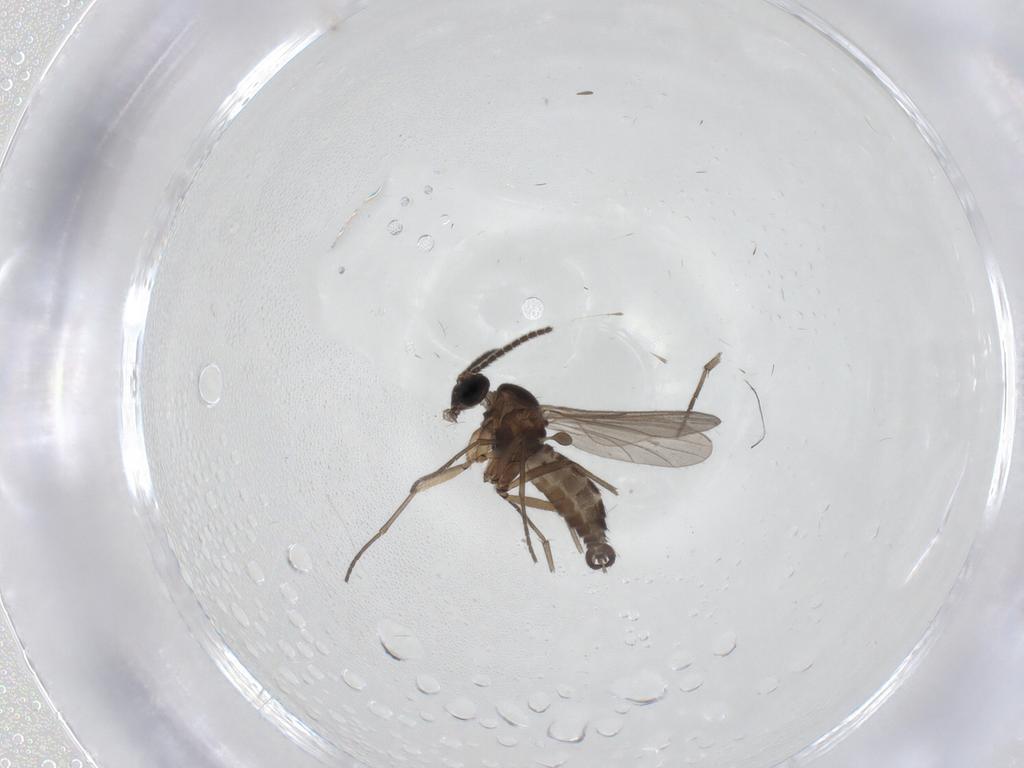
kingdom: Animalia
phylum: Arthropoda
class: Insecta
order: Diptera
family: Sciaridae
